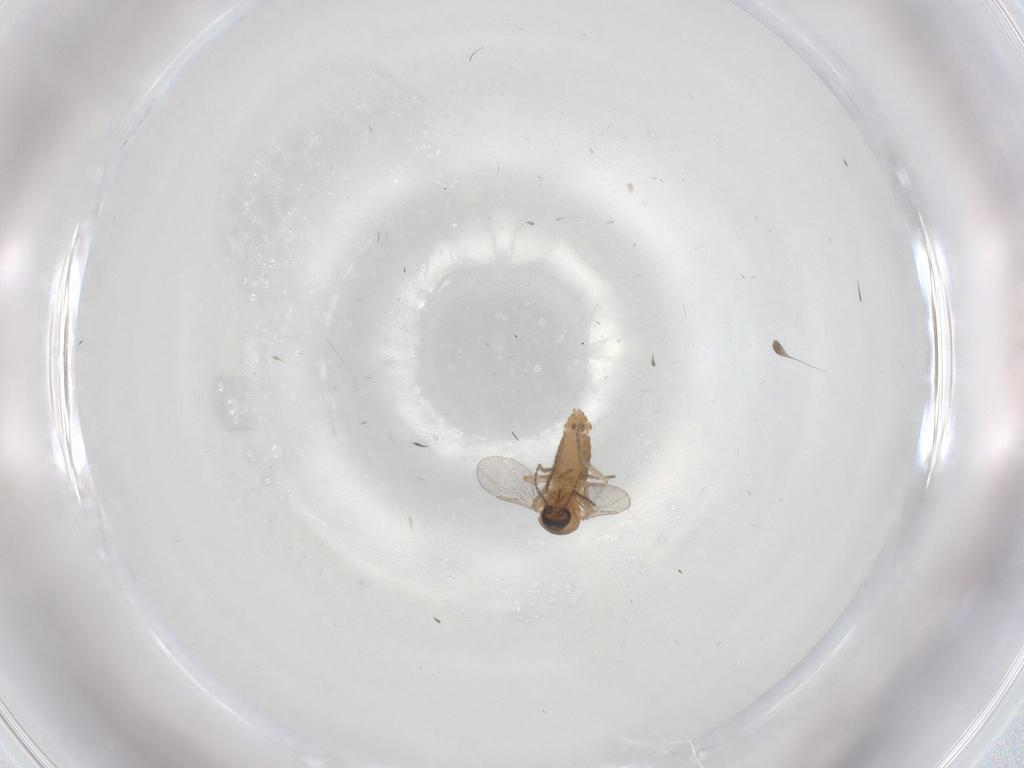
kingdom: Animalia
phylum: Arthropoda
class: Insecta
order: Diptera
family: Ceratopogonidae
